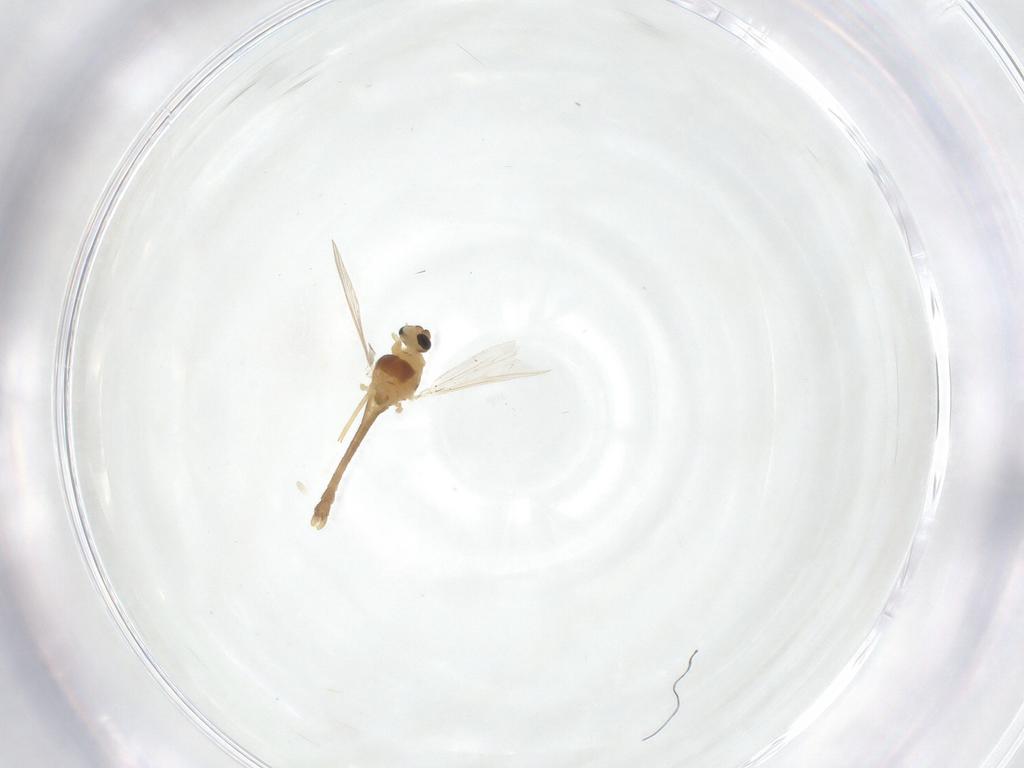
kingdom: Animalia
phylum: Arthropoda
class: Insecta
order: Diptera
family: Chironomidae
